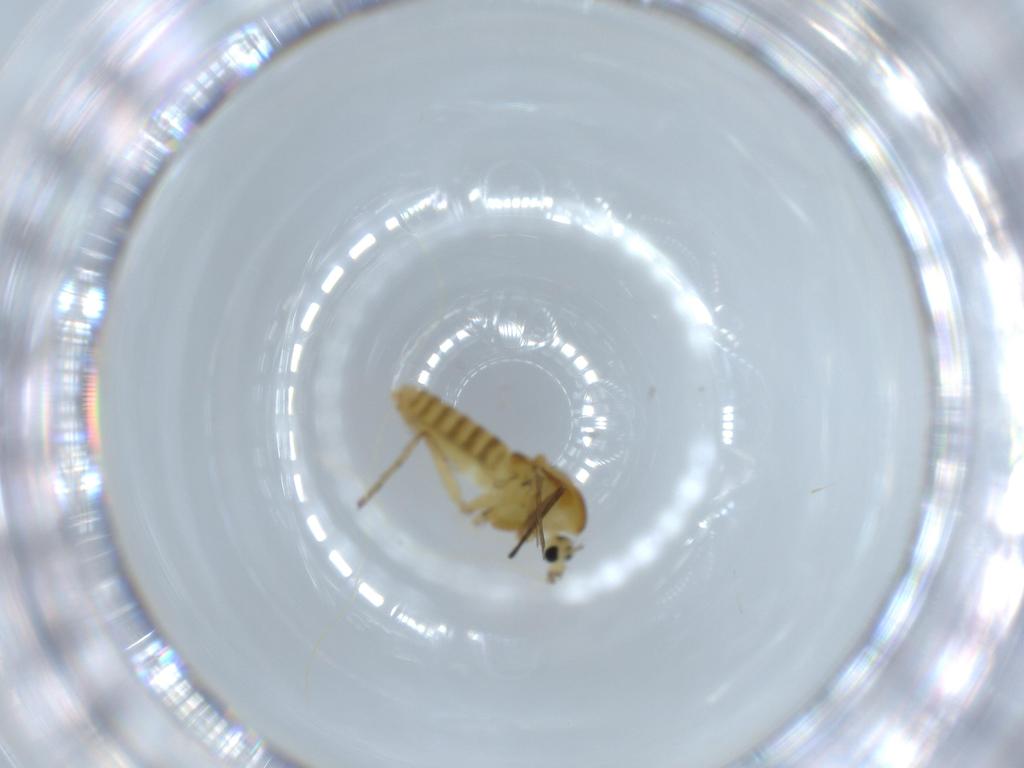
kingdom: Animalia
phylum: Arthropoda
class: Insecta
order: Diptera
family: Chironomidae
